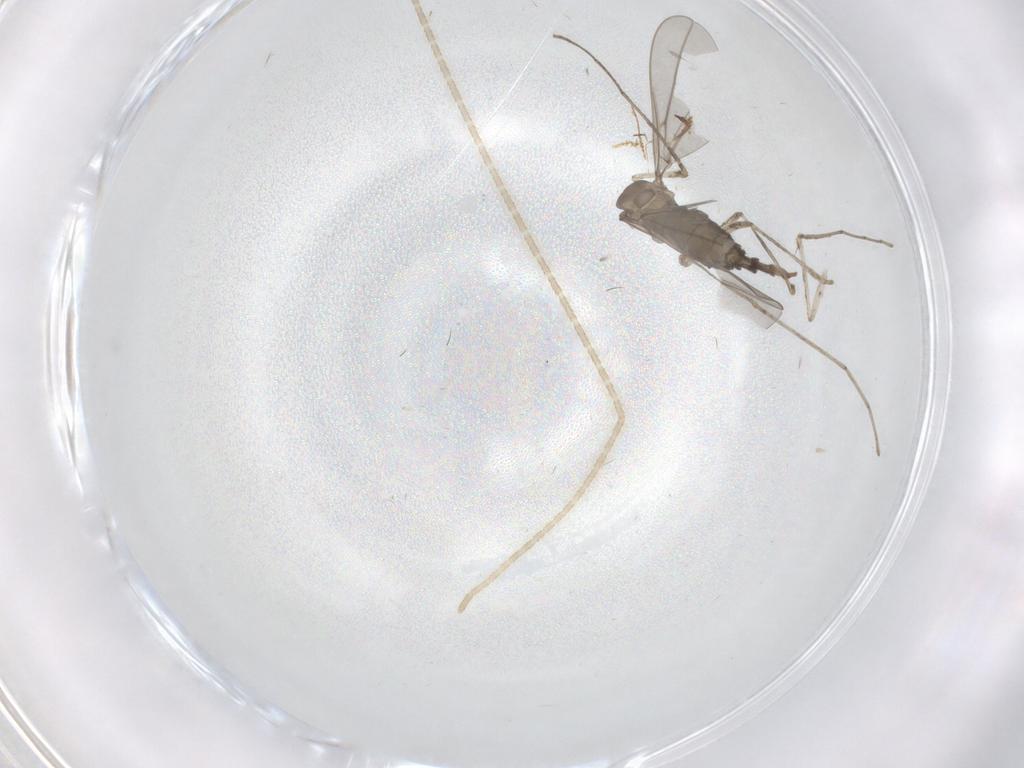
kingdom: Animalia
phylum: Arthropoda
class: Insecta
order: Diptera
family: Cecidomyiidae
